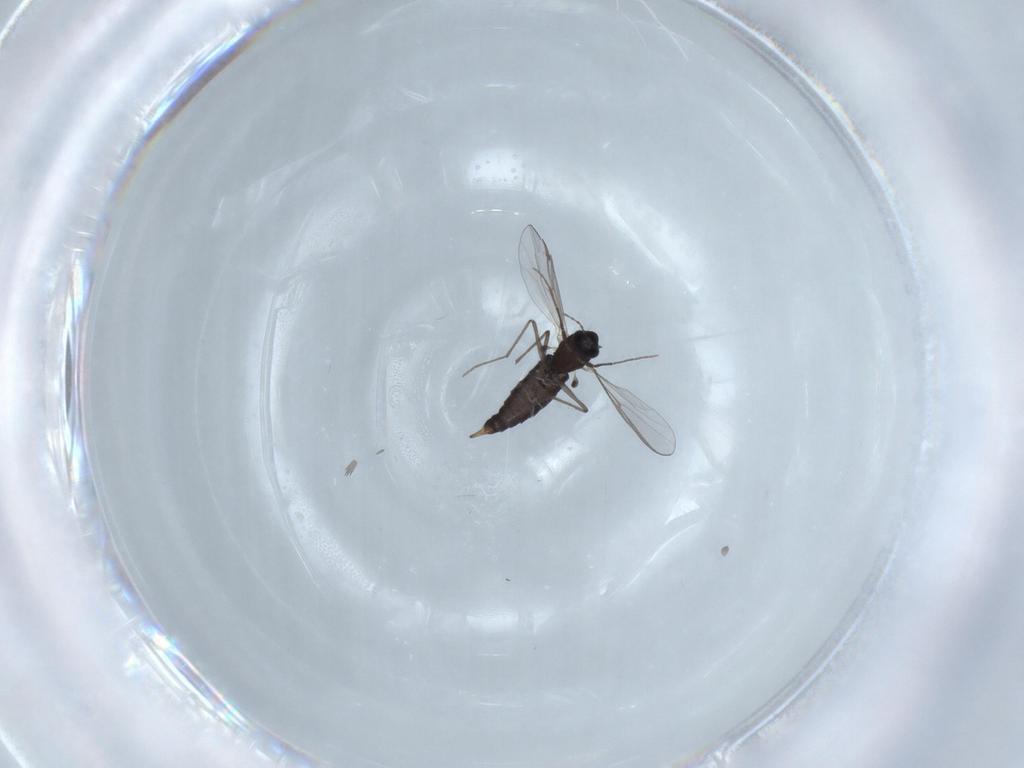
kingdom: Animalia
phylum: Arthropoda
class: Insecta
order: Diptera
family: Chironomidae
